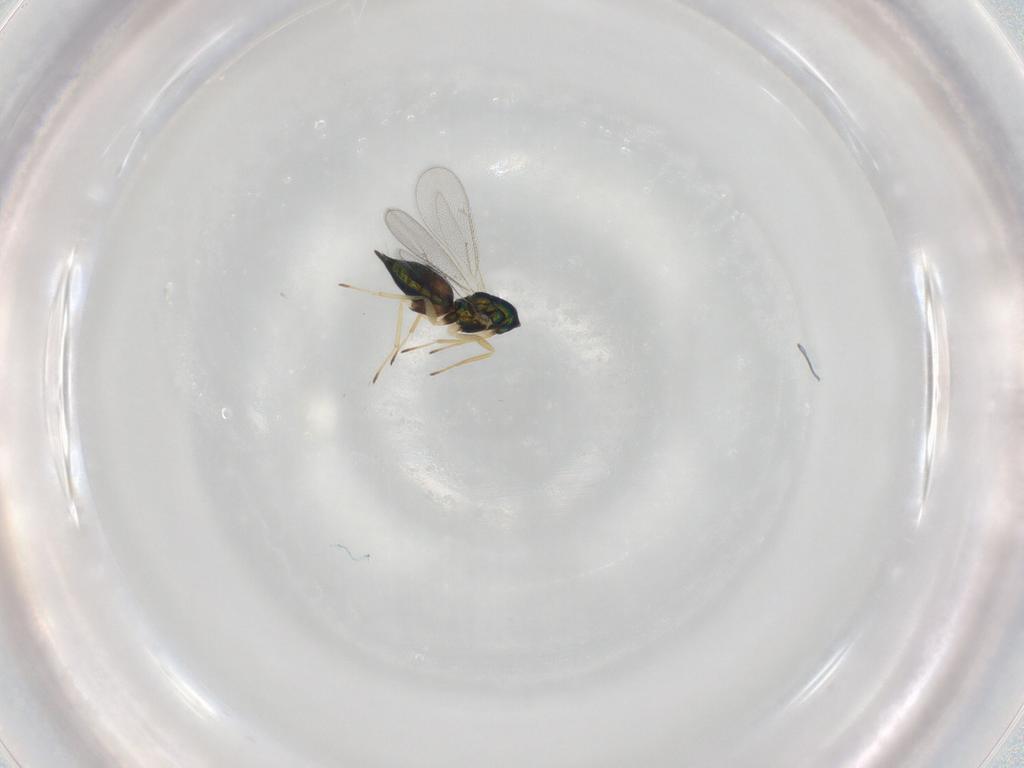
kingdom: Animalia
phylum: Arthropoda
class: Insecta
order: Hymenoptera
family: Eulophidae
